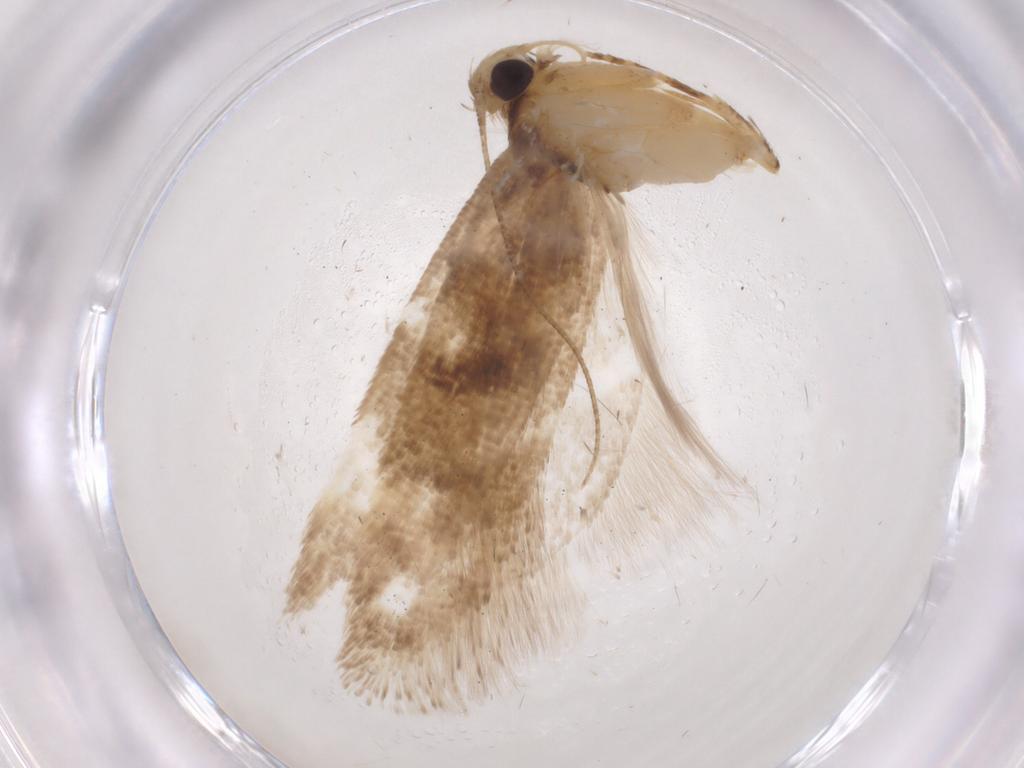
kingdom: Animalia
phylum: Arthropoda
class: Insecta
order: Lepidoptera
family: Gelechiidae
